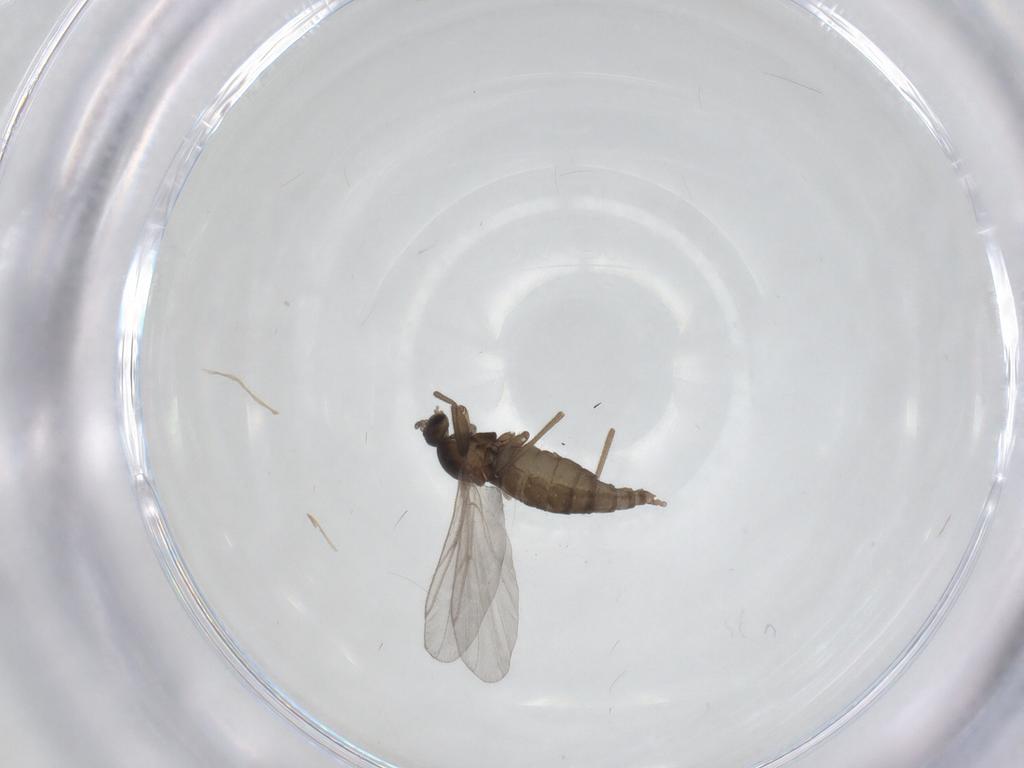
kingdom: Animalia
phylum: Arthropoda
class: Insecta
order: Diptera
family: Cecidomyiidae
